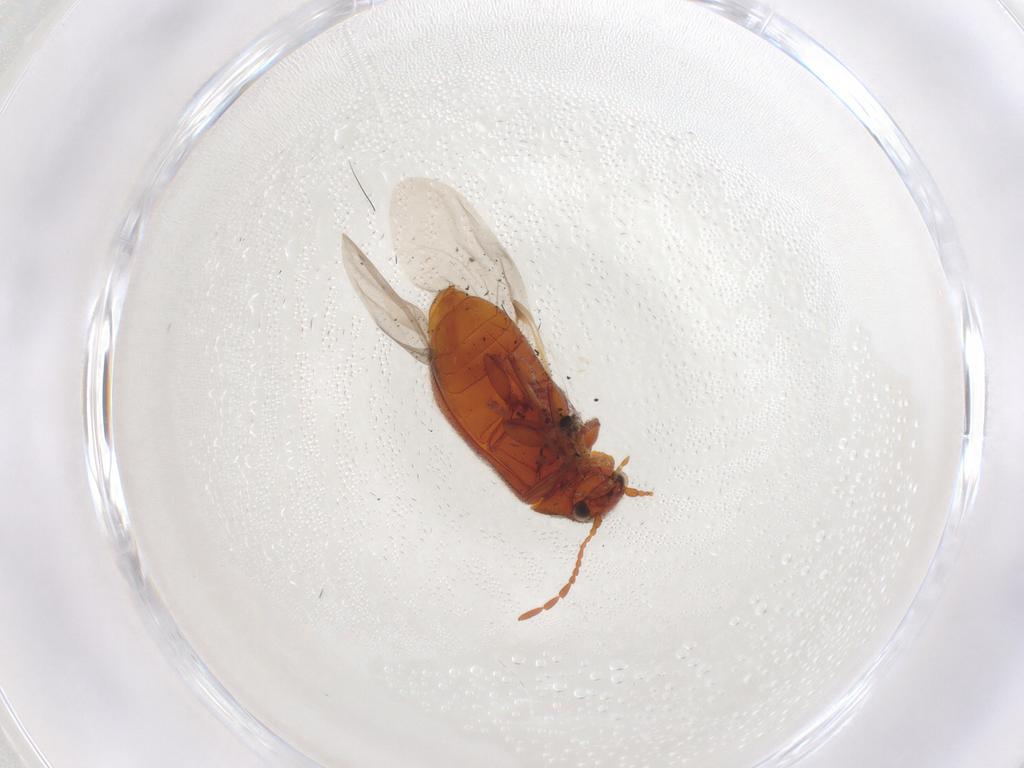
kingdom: Animalia
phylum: Arthropoda
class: Insecta
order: Coleoptera
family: Ptinidae
